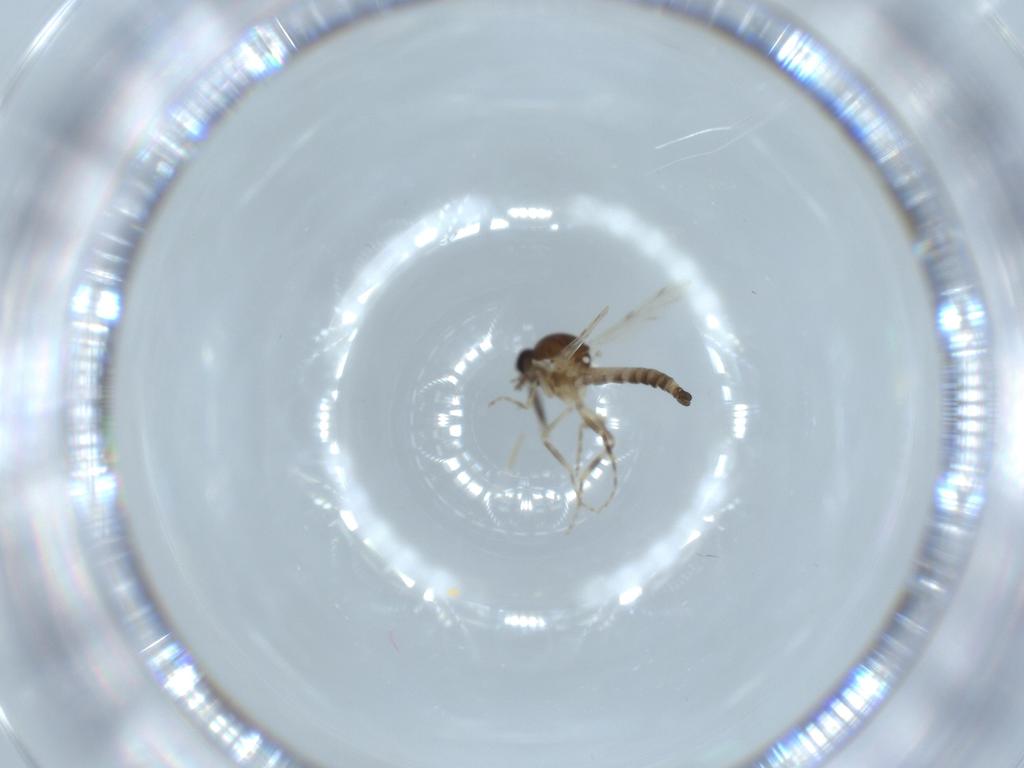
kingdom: Animalia
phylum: Arthropoda
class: Insecta
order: Diptera
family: Ceratopogonidae
